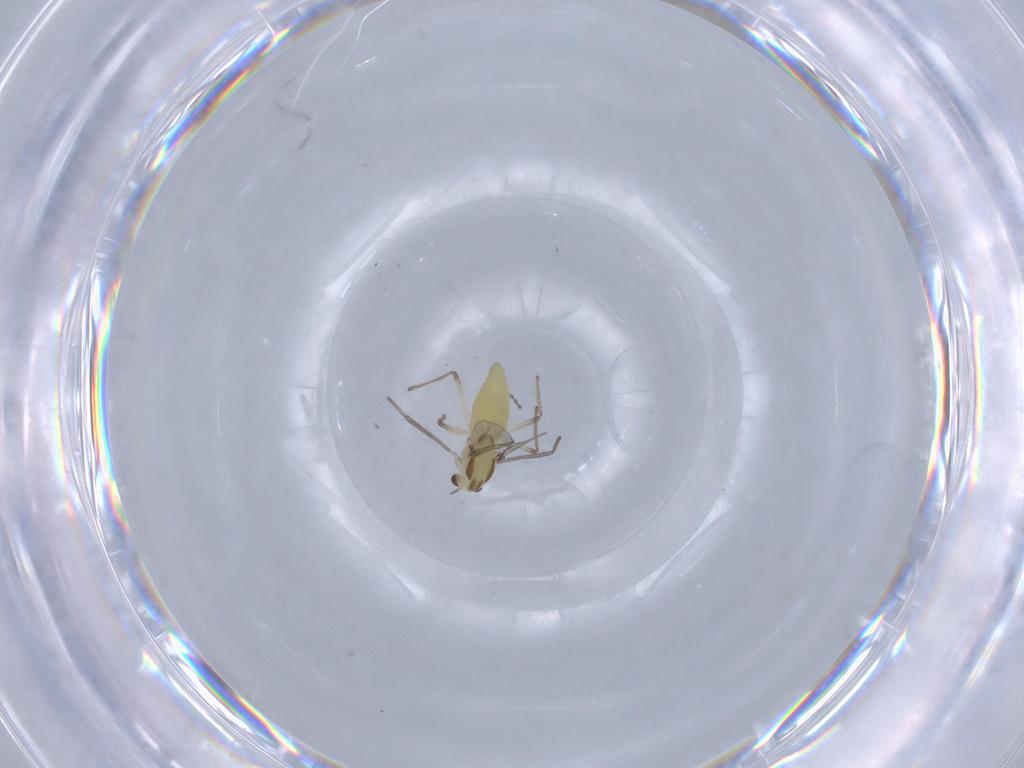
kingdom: Animalia
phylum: Arthropoda
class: Insecta
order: Diptera
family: Chironomidae
